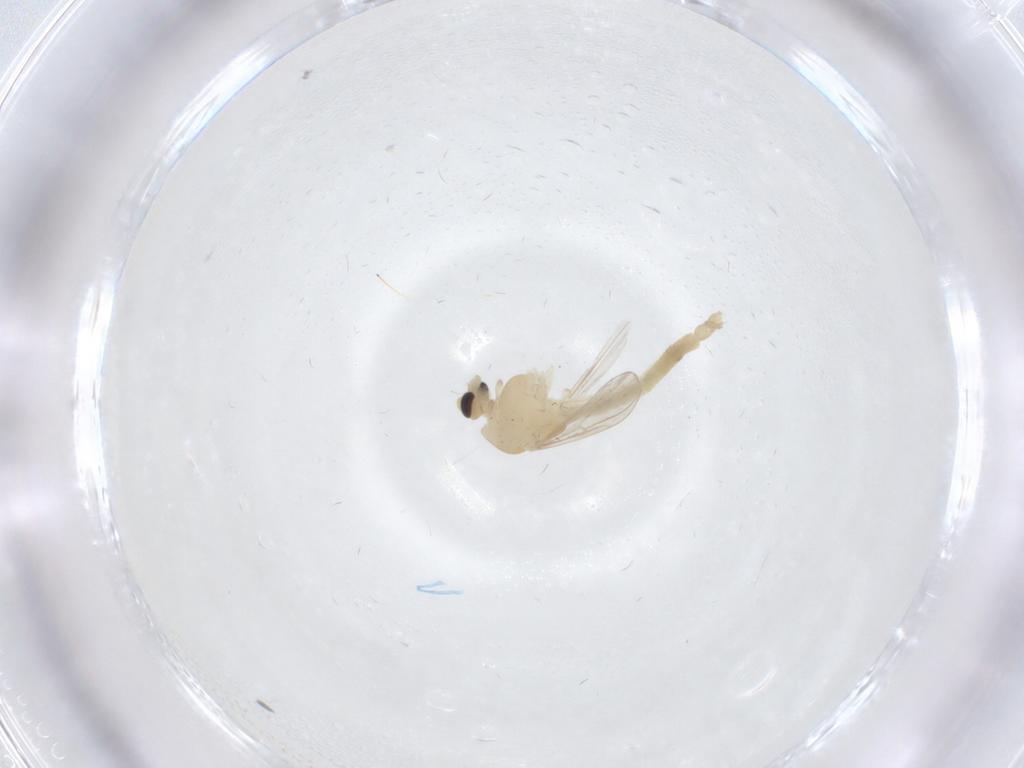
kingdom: Animalia
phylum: Arthropoda
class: Insecta
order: Diptera
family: Chironomidae
